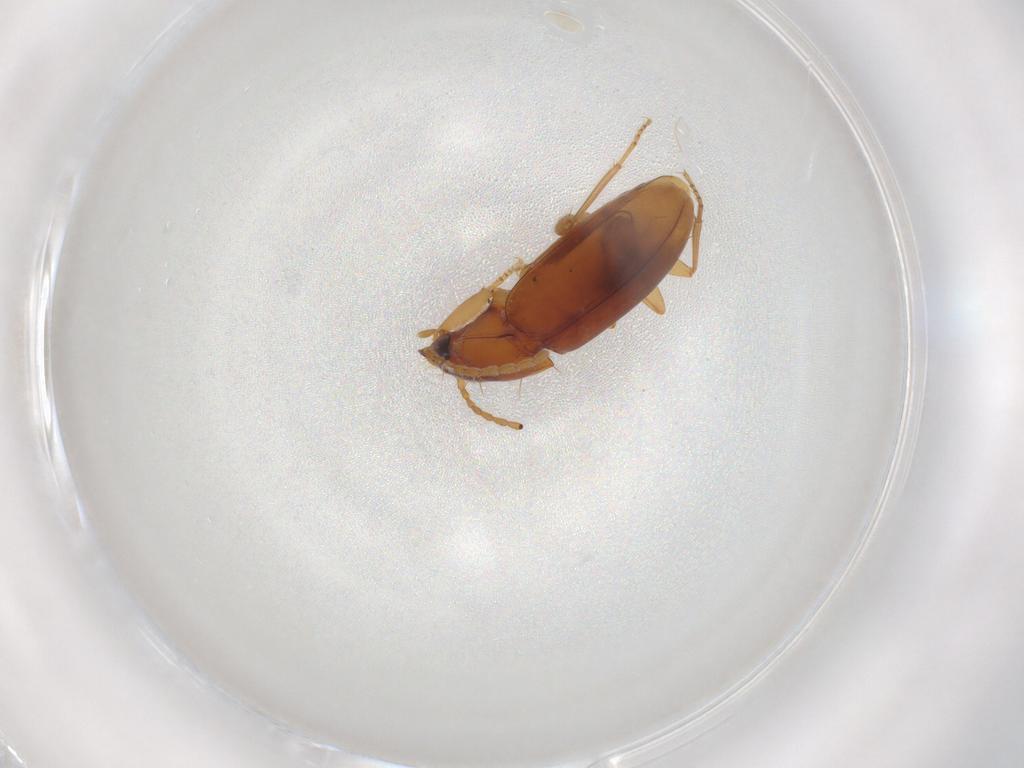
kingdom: Animalia
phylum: Arthropoda
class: Insecta
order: Coleoptera
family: Carabidae
